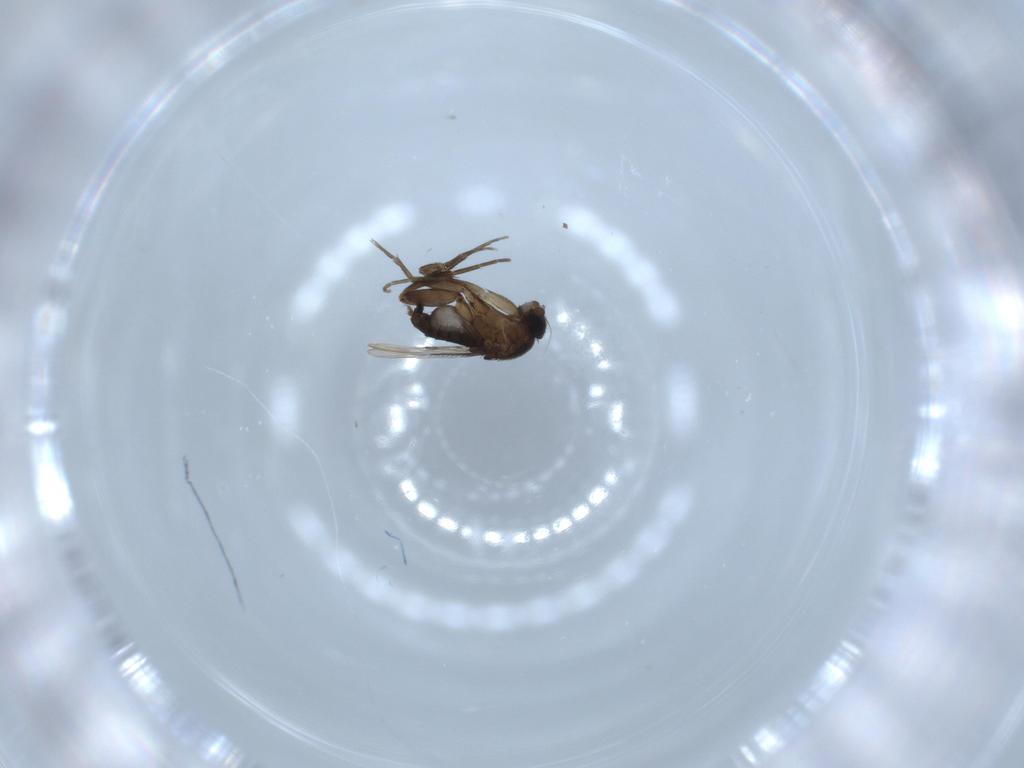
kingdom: Animalia
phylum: Arthropoda
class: Insecta
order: Diptera
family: Phoridae
